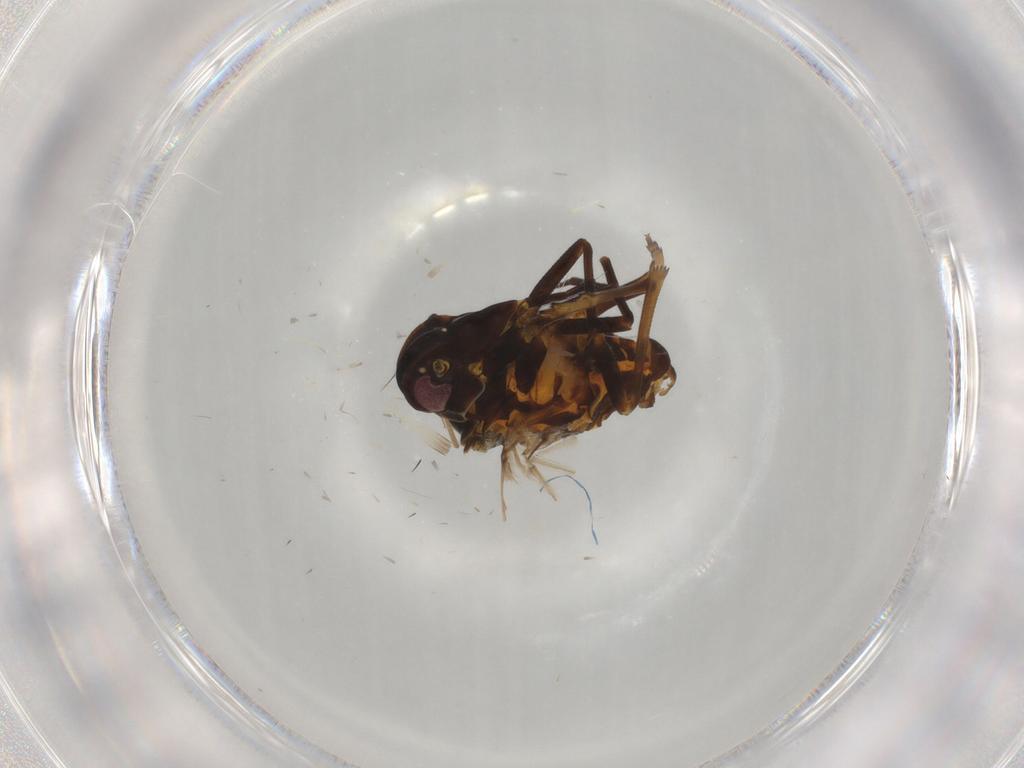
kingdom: Animalia
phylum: Arthropoda
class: Insecta
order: Hemiptera
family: Meenoplidae
